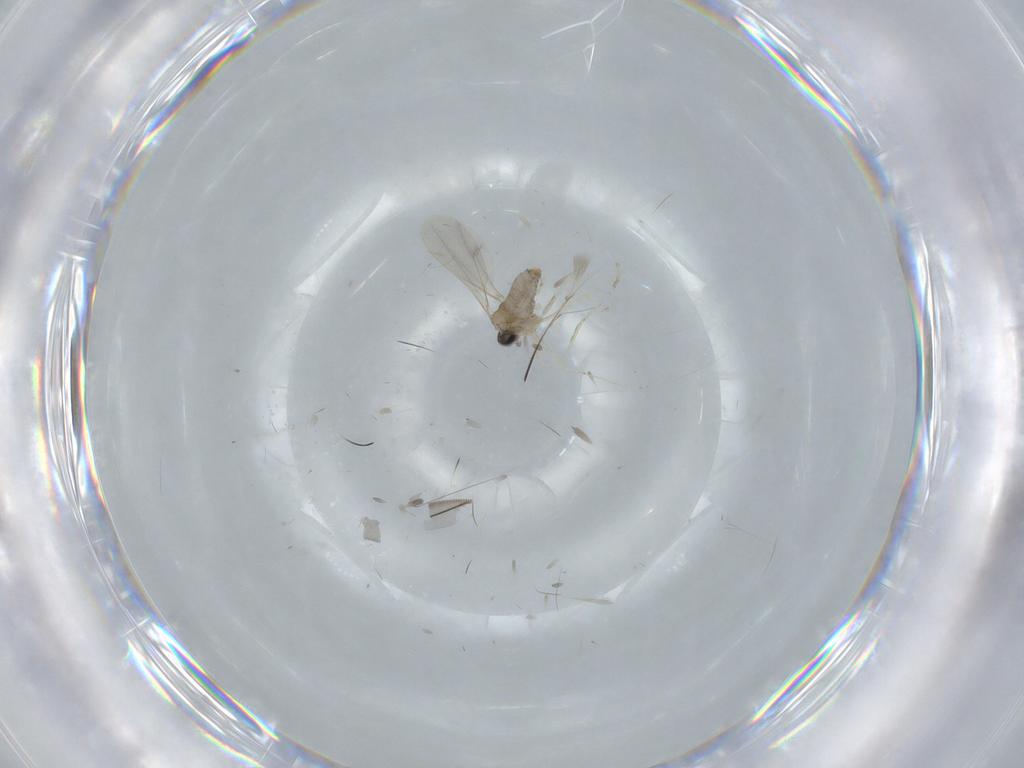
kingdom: Animalia
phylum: Arthropoda
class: Insecta
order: Diptera
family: Cecidomyiidae
